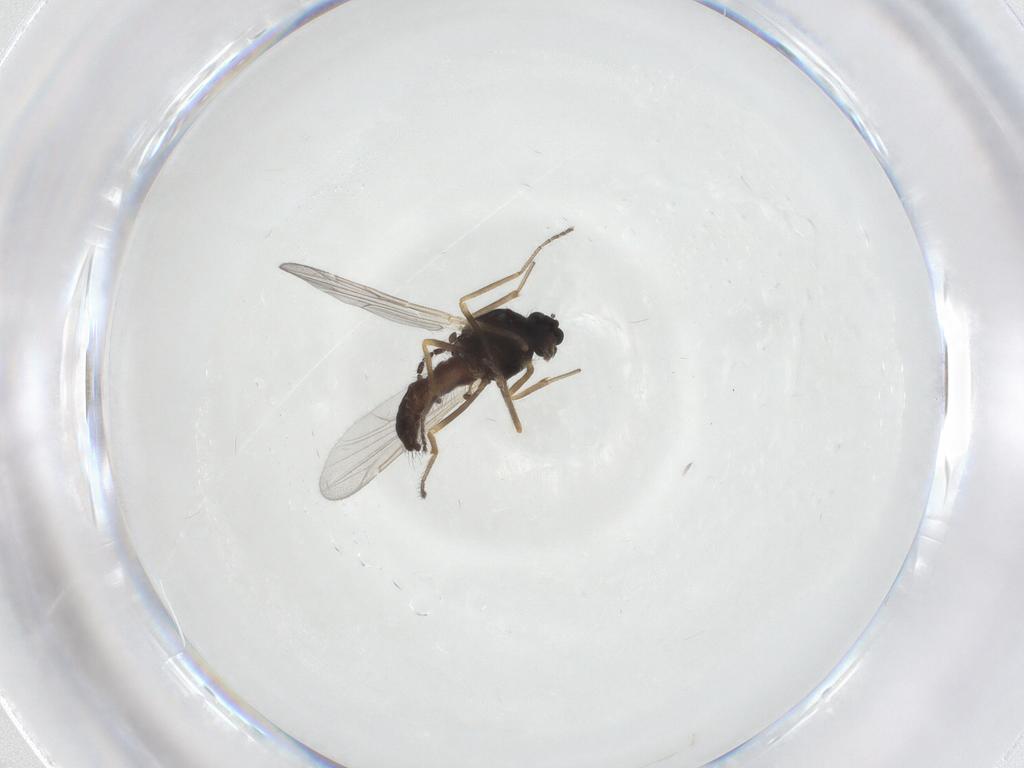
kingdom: Animalia
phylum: Arthropoda
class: Insecta
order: Diptera
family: Ceratopogonidae
